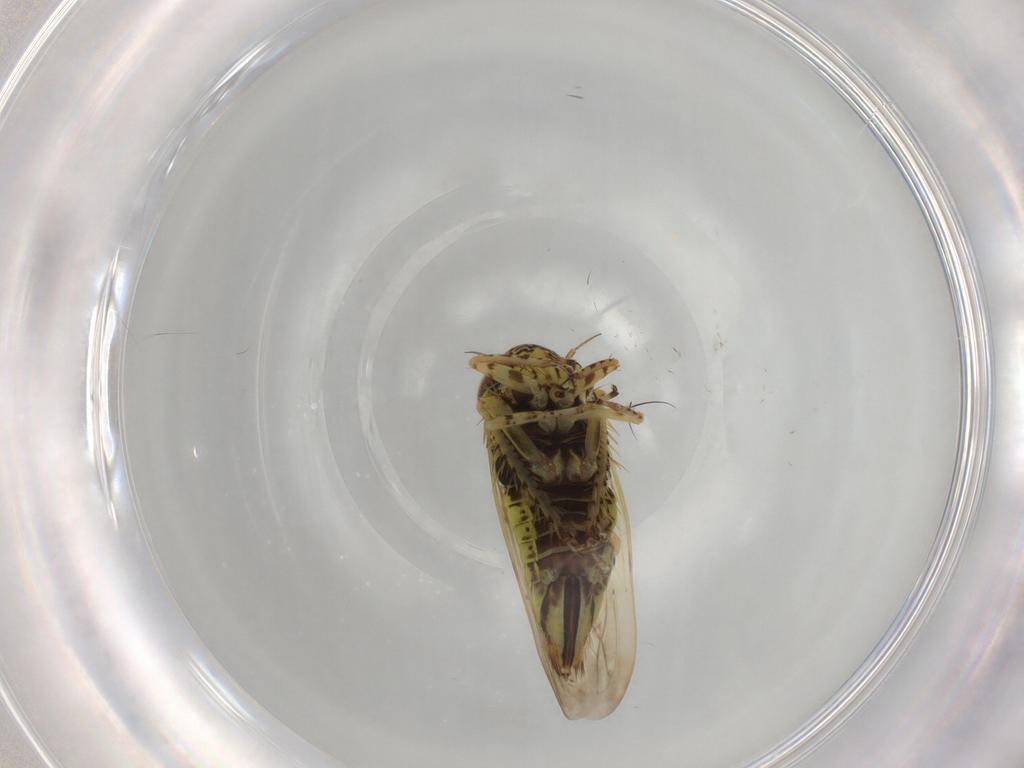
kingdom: Animalia
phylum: Arthropoda
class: Insecta
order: Hemiptera
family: Cicadellidae
